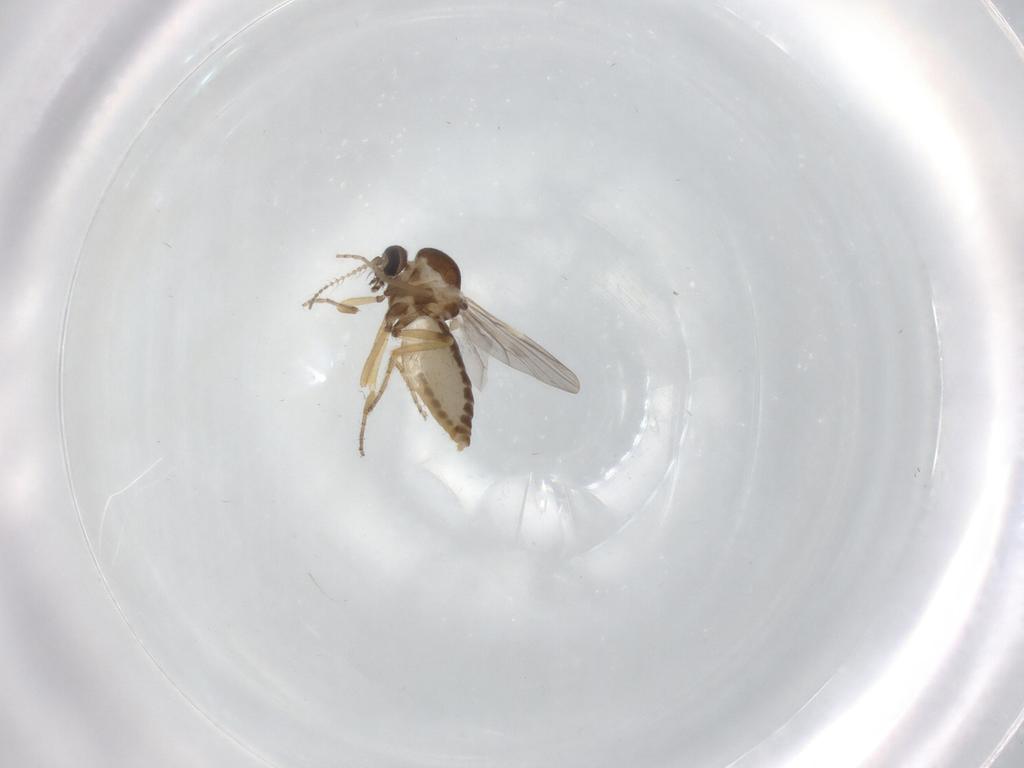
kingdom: Animalia
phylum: Arthropoda
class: Insecta
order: Diptera
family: Ceratopogonidae
